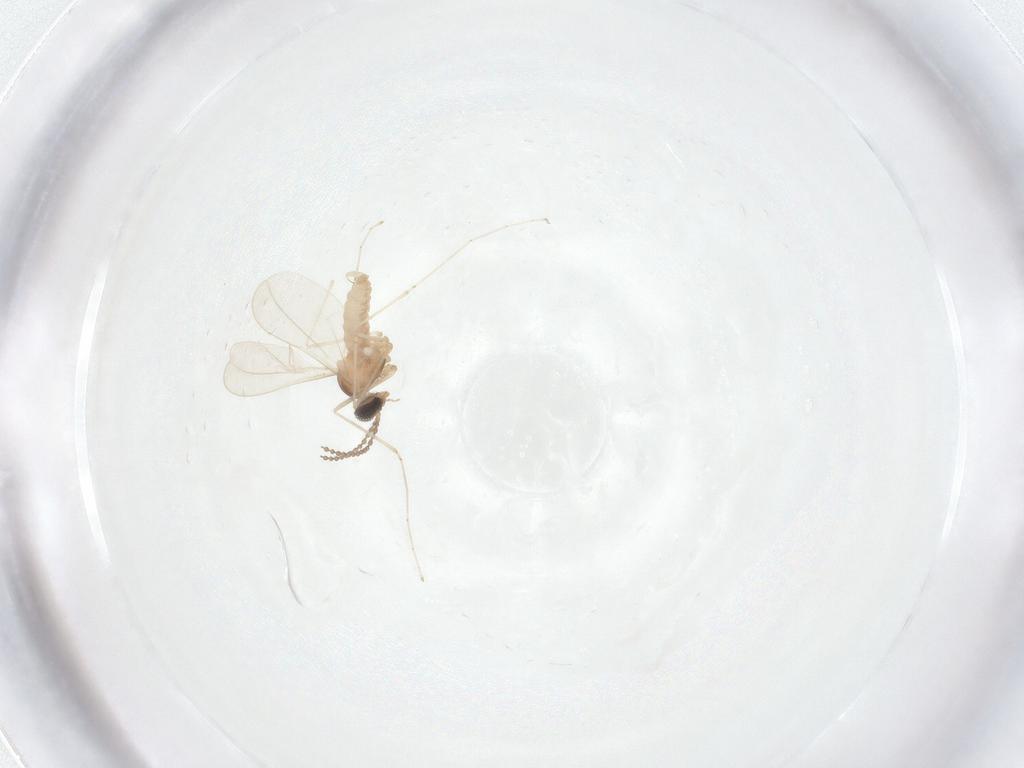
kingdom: Animalia
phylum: Arthropoda
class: Insecta
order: Diptera
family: Cecidomyiidae
